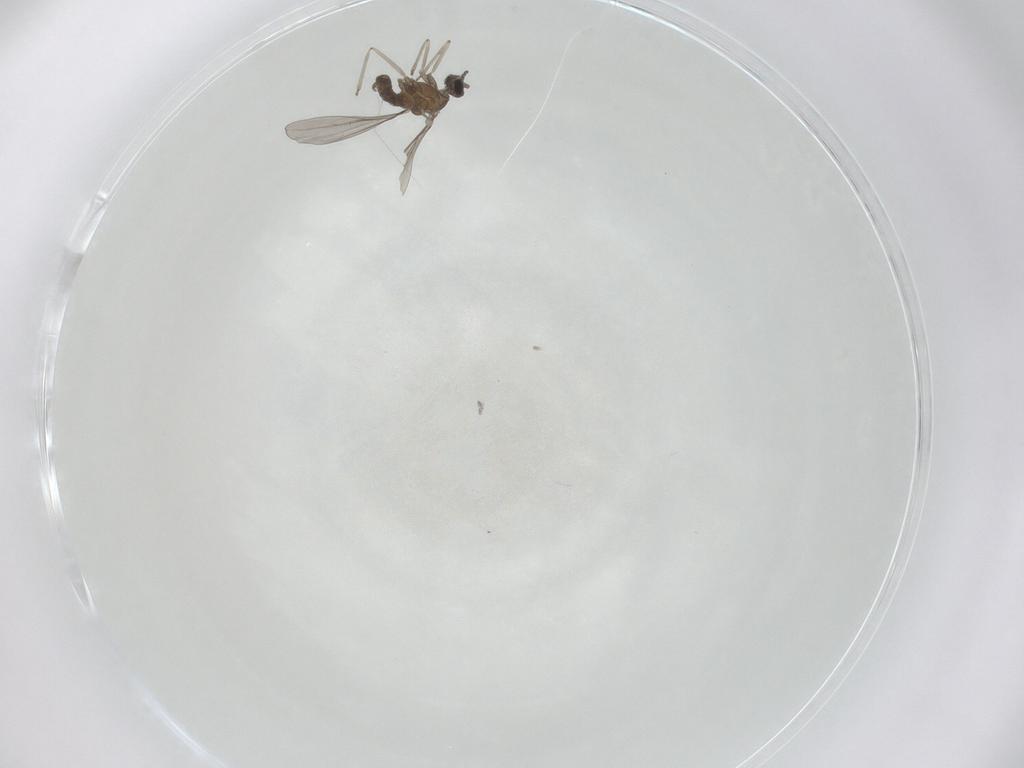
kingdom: Animalia
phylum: Arthropoda
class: Insecta
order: Diptera
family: Cecidomyiidae
